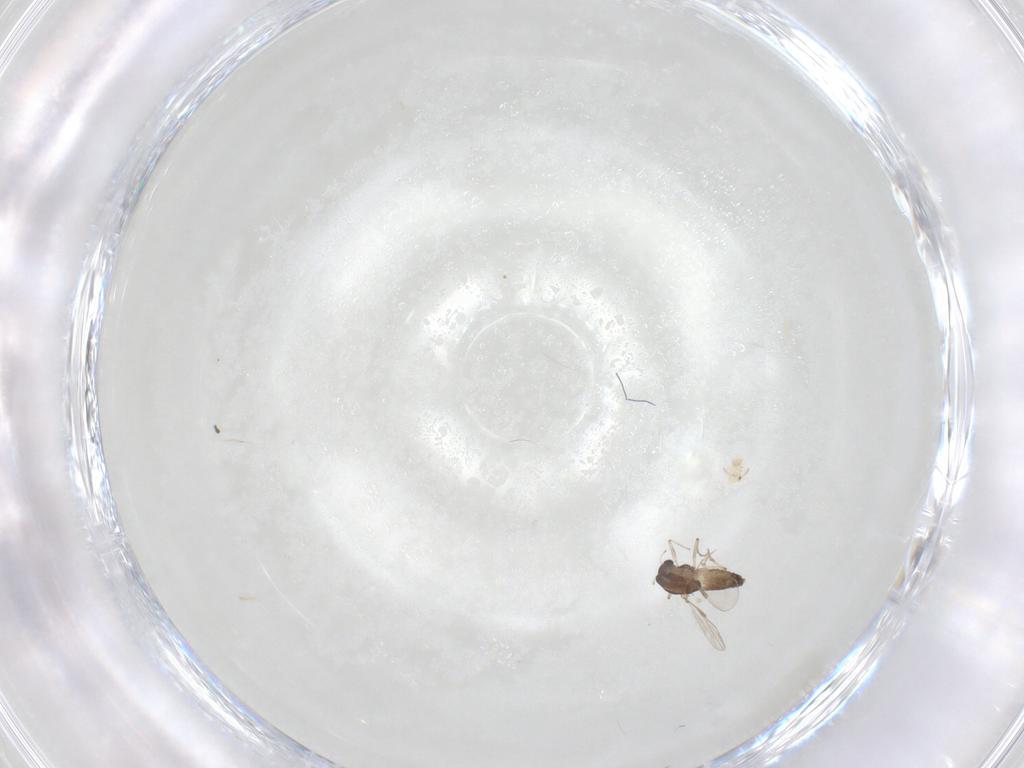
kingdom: Animalia
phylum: Arthropoda
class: Insecta
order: Diptera
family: Chironomidae
